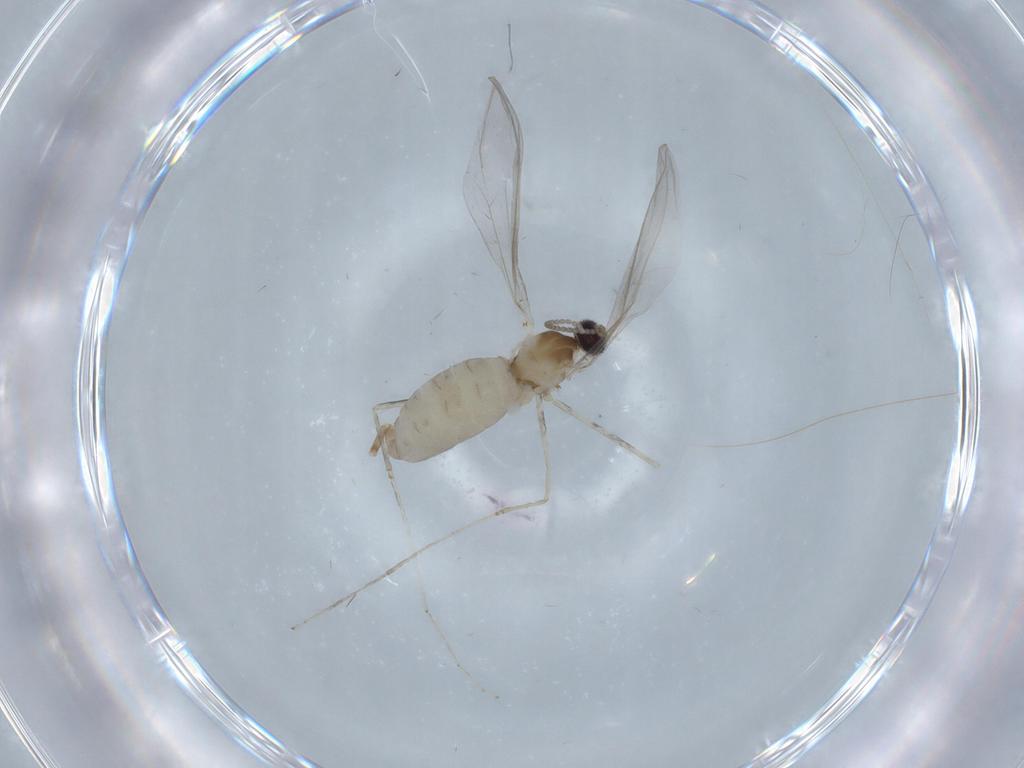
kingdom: Animalia
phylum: Arthropoda
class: Insecta
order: Diptera
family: Cecidomyiidae
